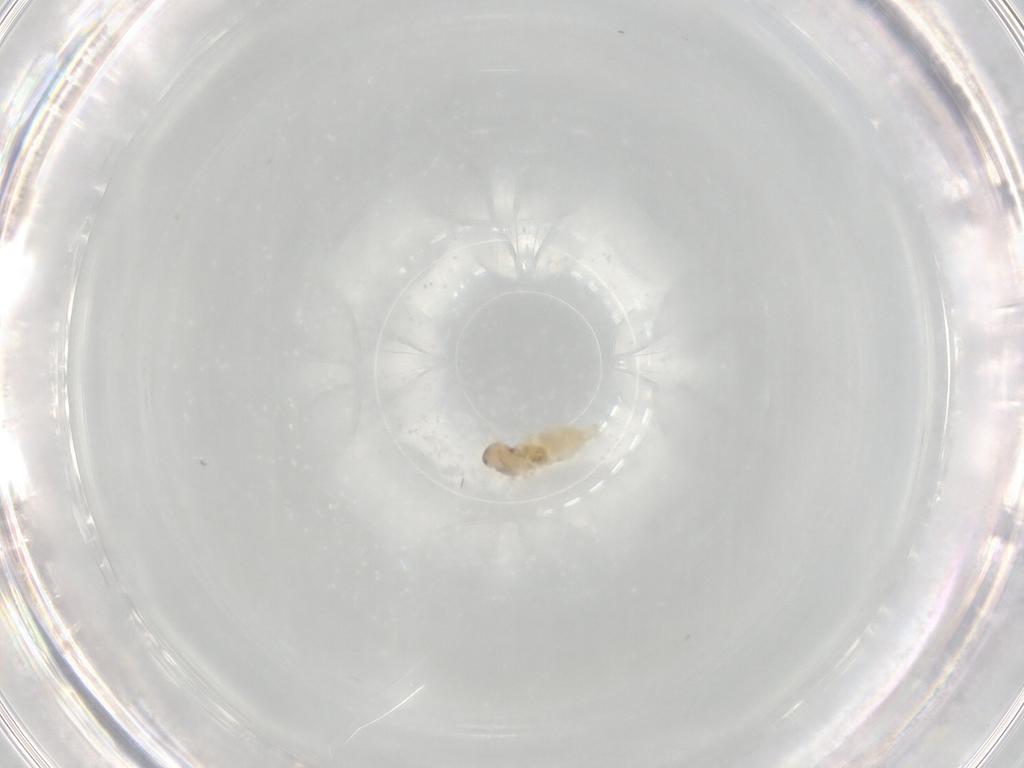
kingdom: Animalia
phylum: Arthropoda
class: Insecta
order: Diptera
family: Cecidomyiidae
